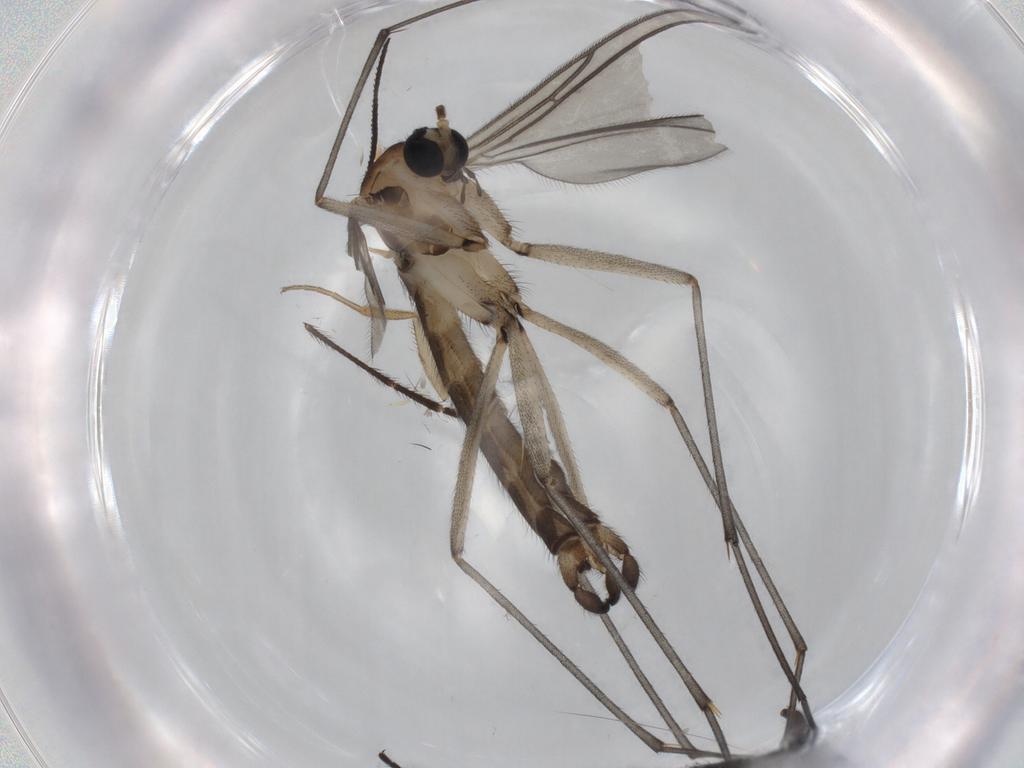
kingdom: Animalia
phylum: Arthropoda
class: Insecta
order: Diptera
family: Sciaridae
